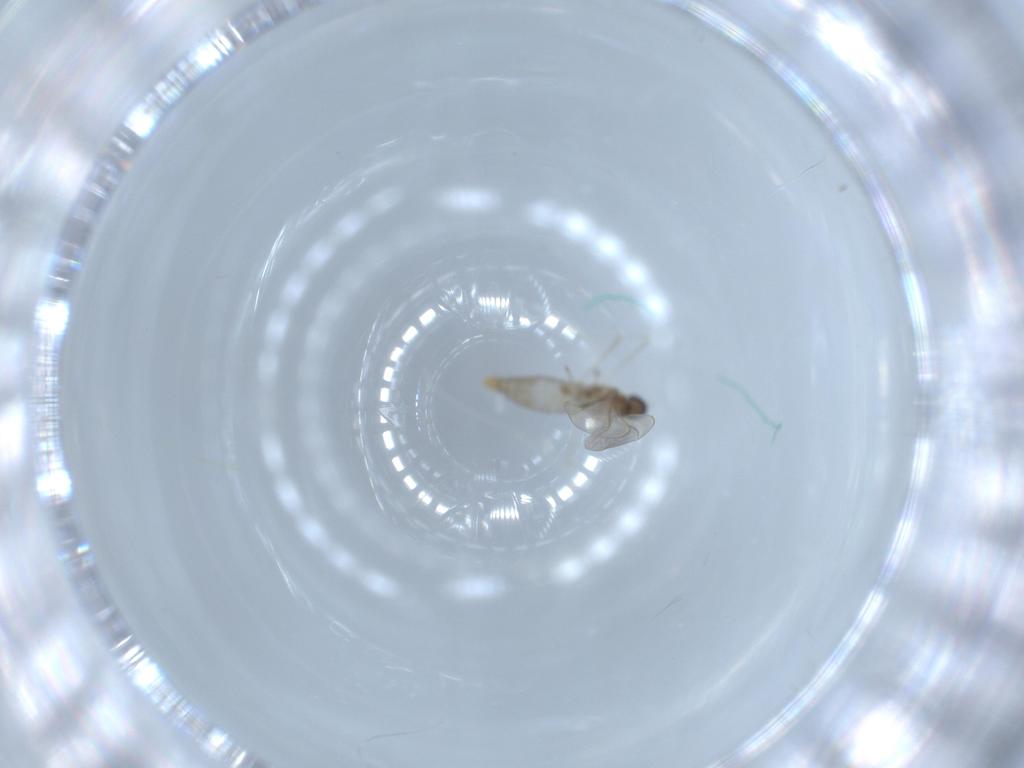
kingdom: Animalia
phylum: Arthropoda
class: Insecta
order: Diptera
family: Cecidomyiidae
